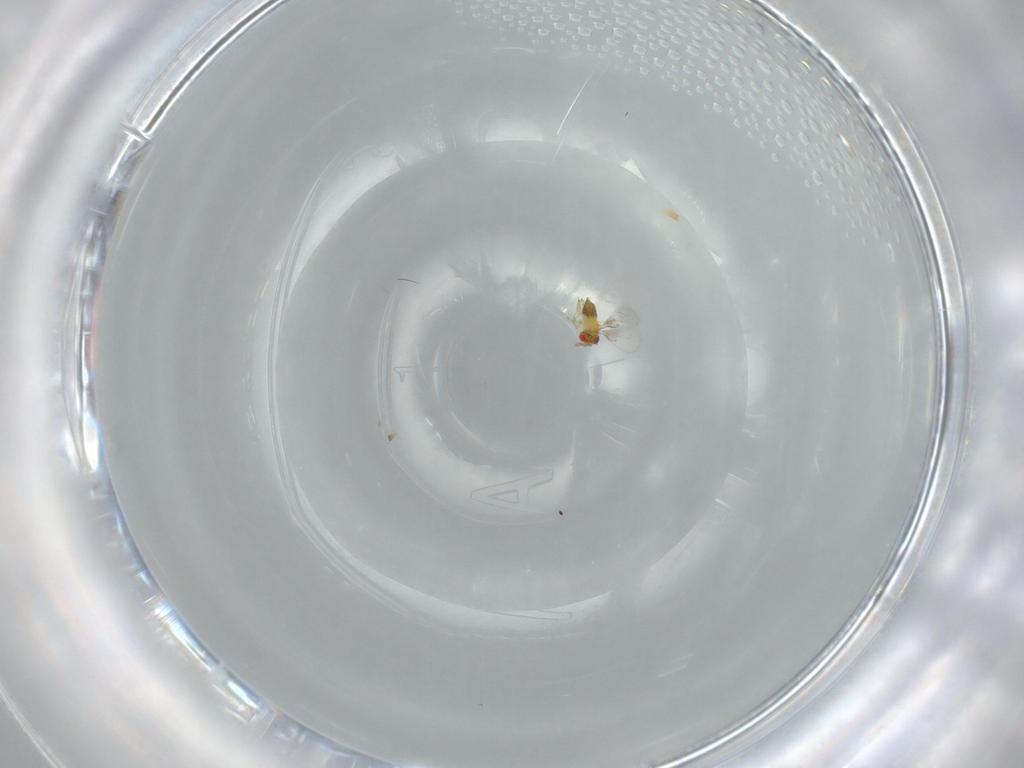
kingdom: Animalia
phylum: Arthropoda
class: Insecta
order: Hymenoptera
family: Trichogrammatidae
